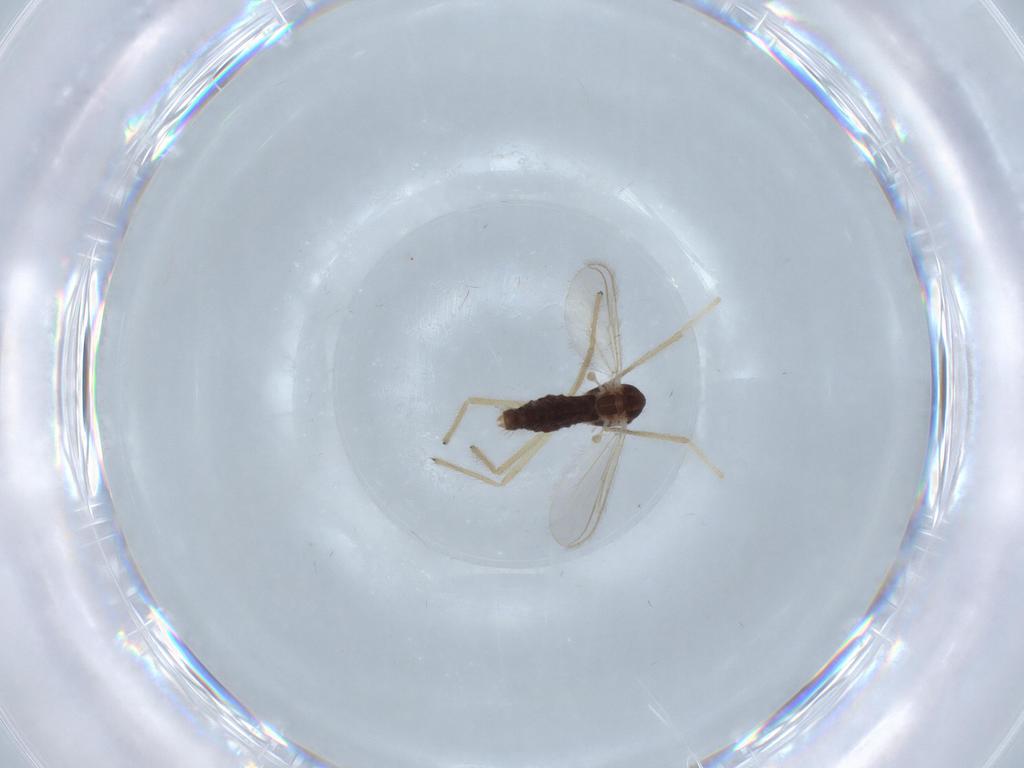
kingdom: Animalia
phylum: Arthropoda
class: Insecta
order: Diptera
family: Chironomidae
